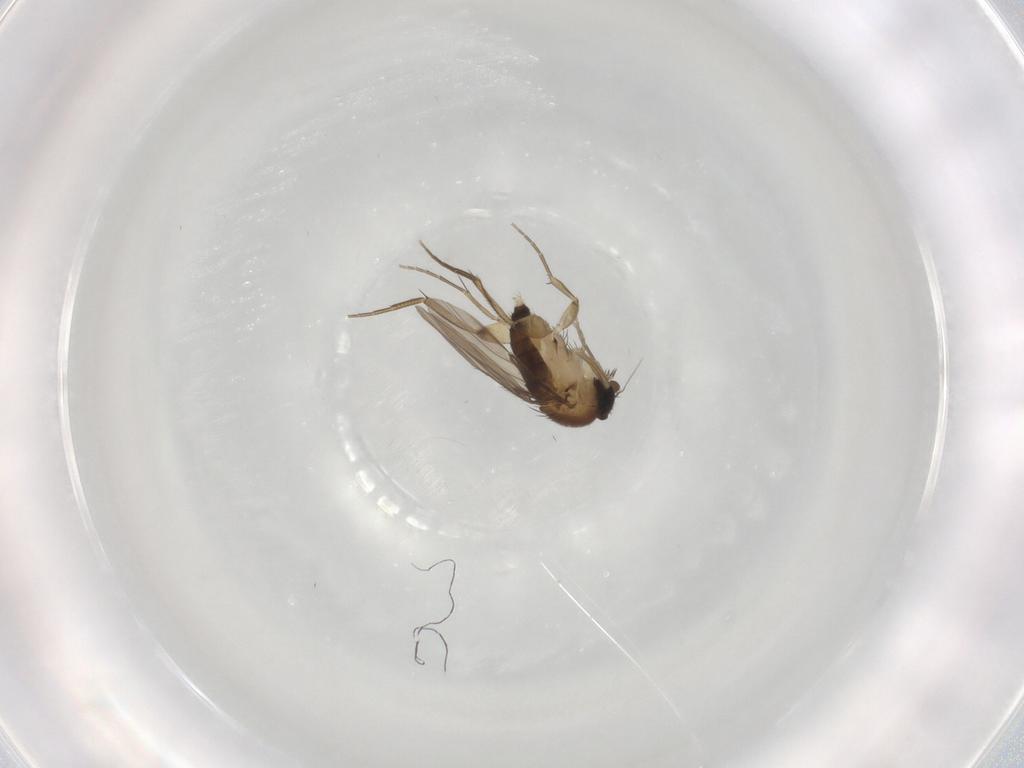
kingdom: Animalia
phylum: Arthropoda
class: Insecta
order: Diptera
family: Phoridae
